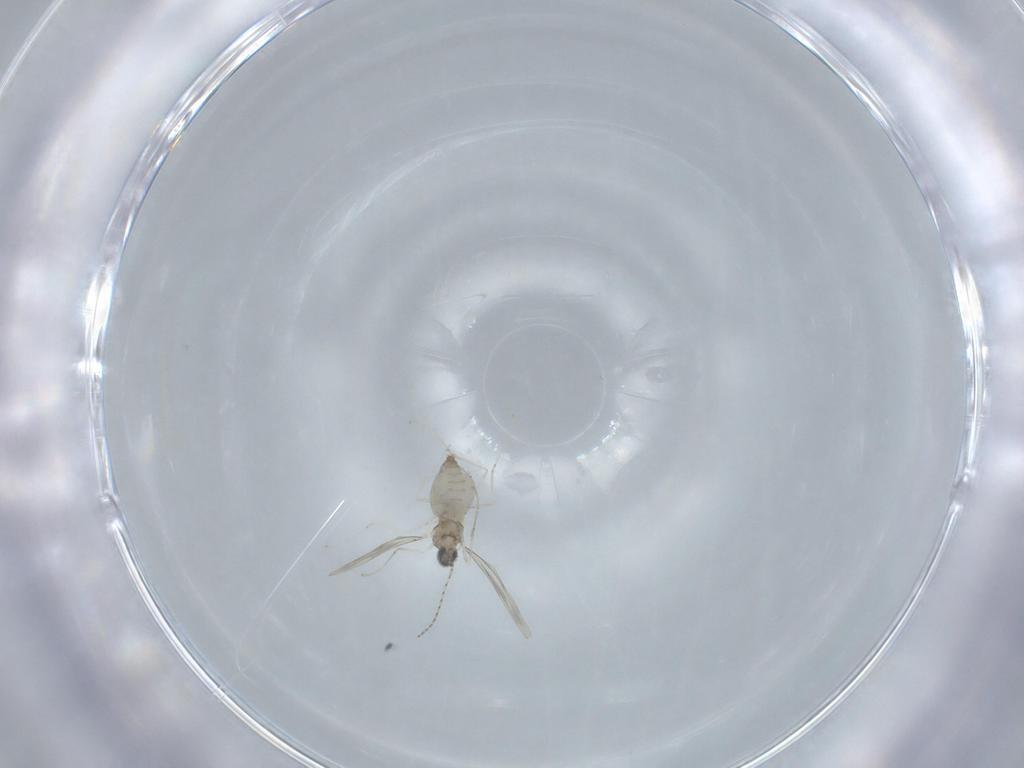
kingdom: Animalia
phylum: Arthropoda
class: Insecta
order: Diptera
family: Cecidomyiidae
